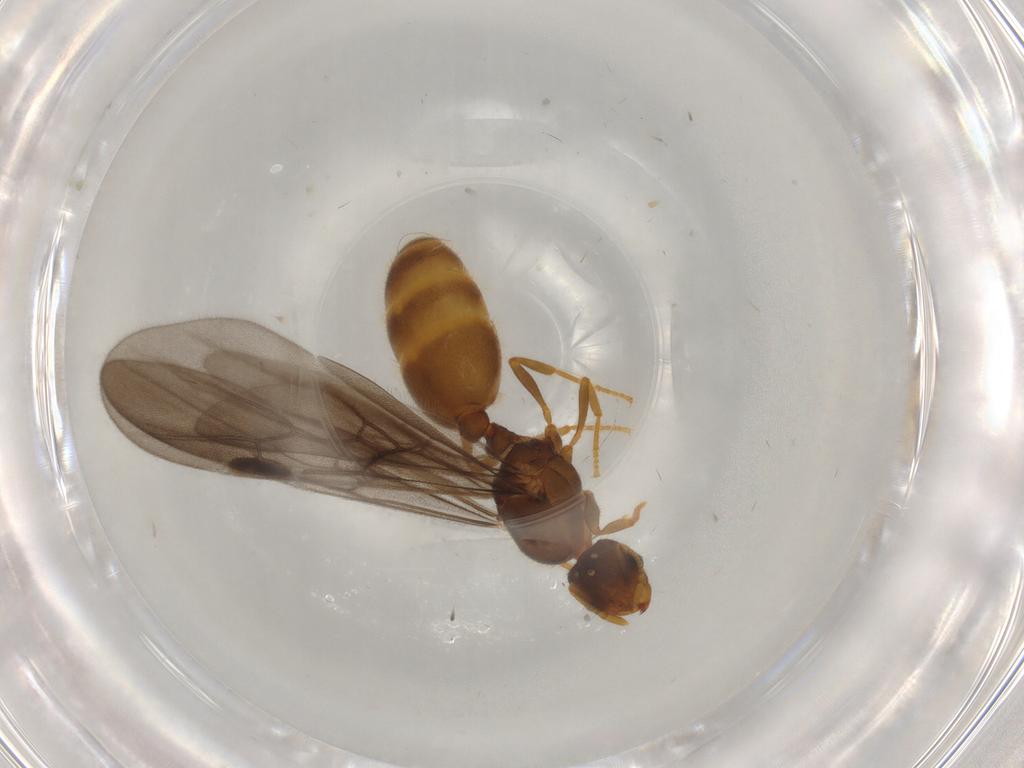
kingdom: Animalia
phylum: Arthropoda
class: Insecta
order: Hymenoptera
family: Formicidae
